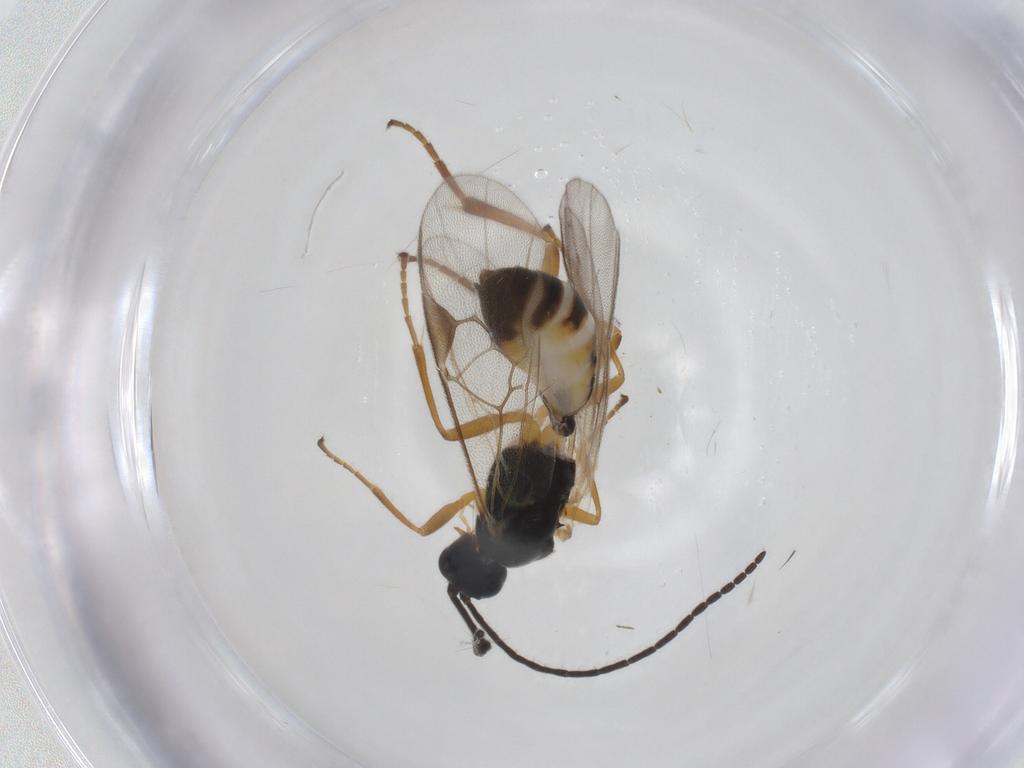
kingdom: Animalia
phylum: Arthropoda
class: Insecta
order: Hymenoptera
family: Braconidae
